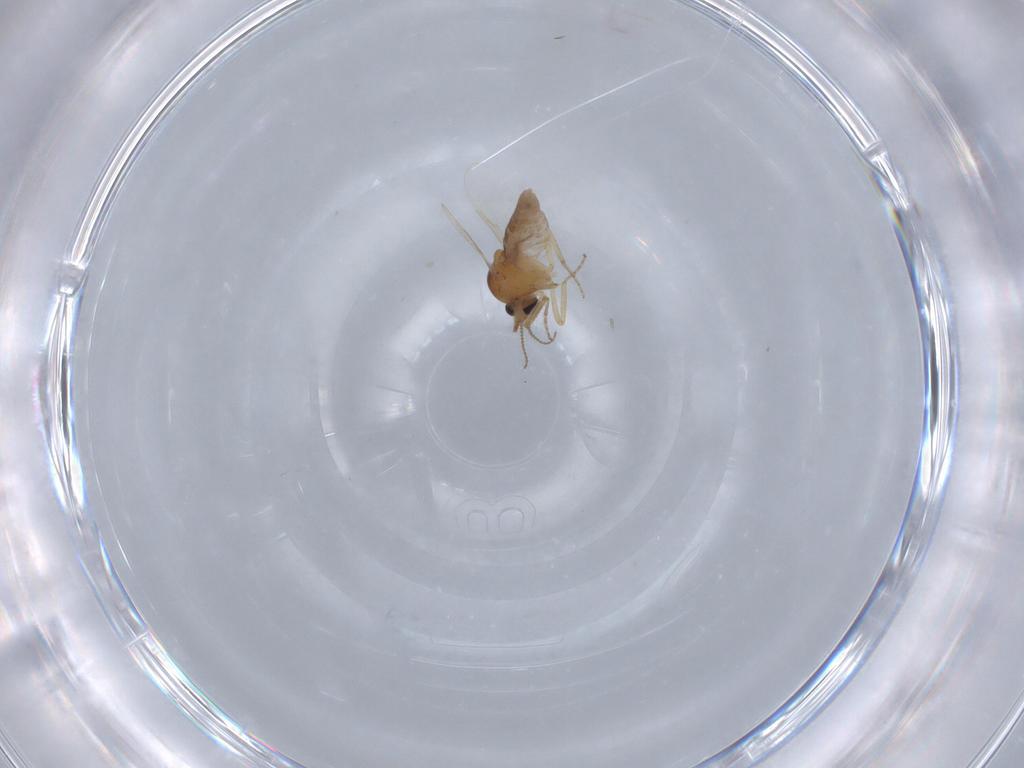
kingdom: Animalia
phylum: Arthropoda
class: Insecta
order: Diptera
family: Ceratopogonidae
